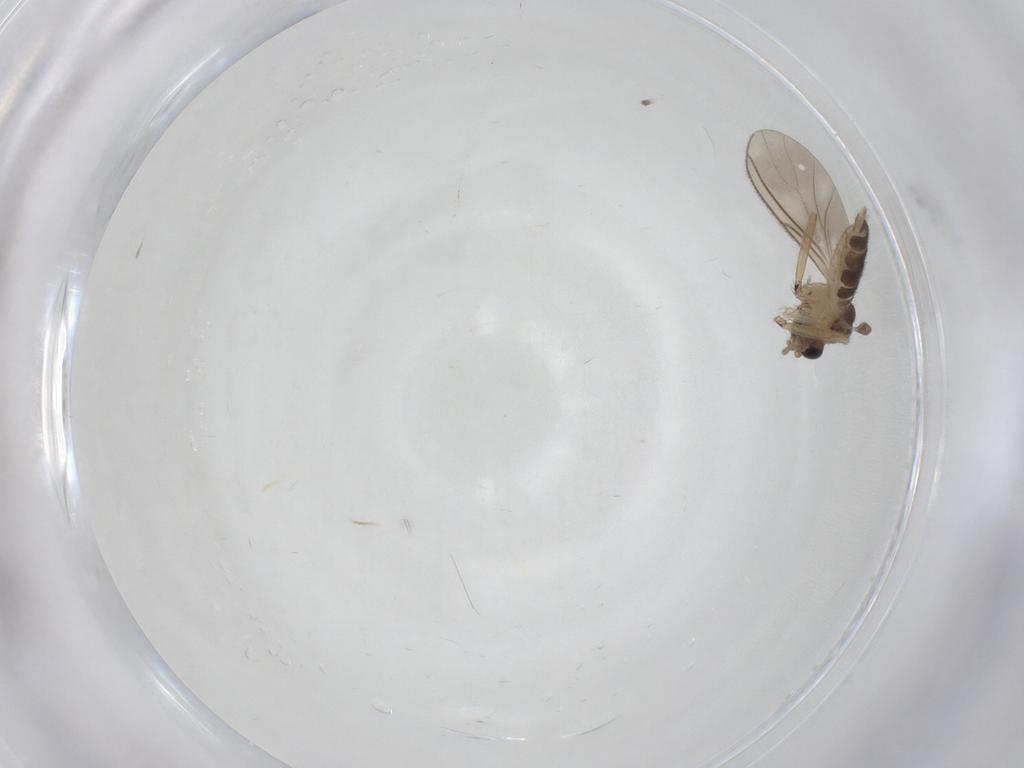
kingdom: Animalia
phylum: Arthropoda
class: Insecta
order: Diptera
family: Sciaridae
